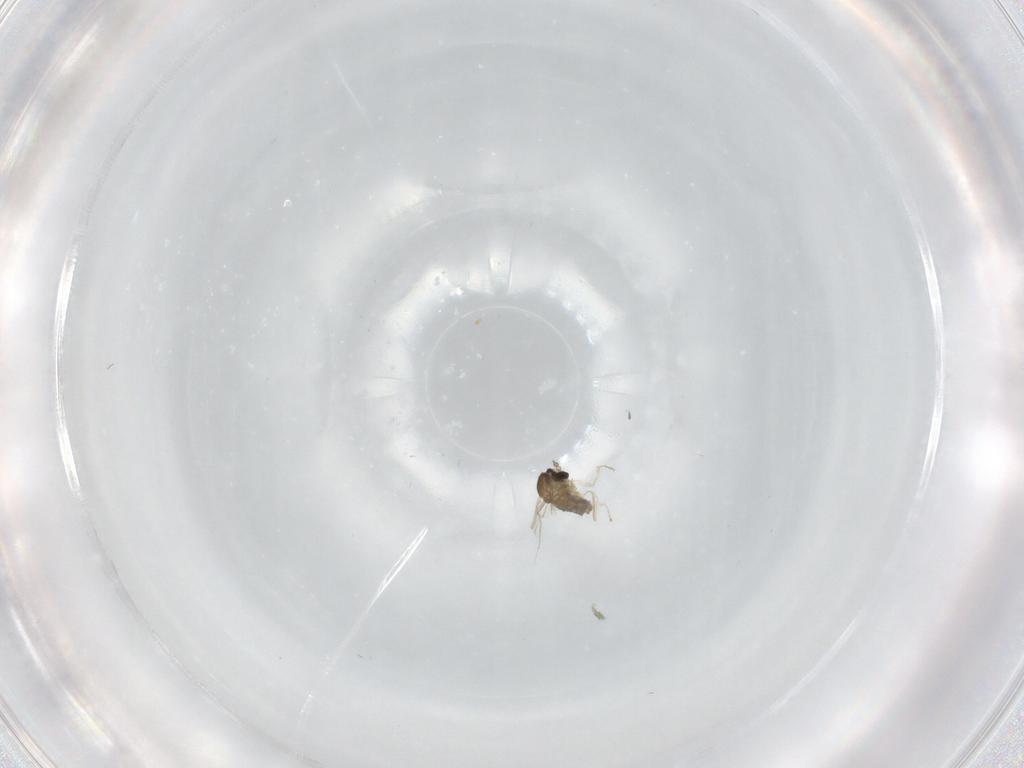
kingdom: Animalia
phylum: Arthropoda
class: Insecta
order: Diptera
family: Cecidomyiidae
